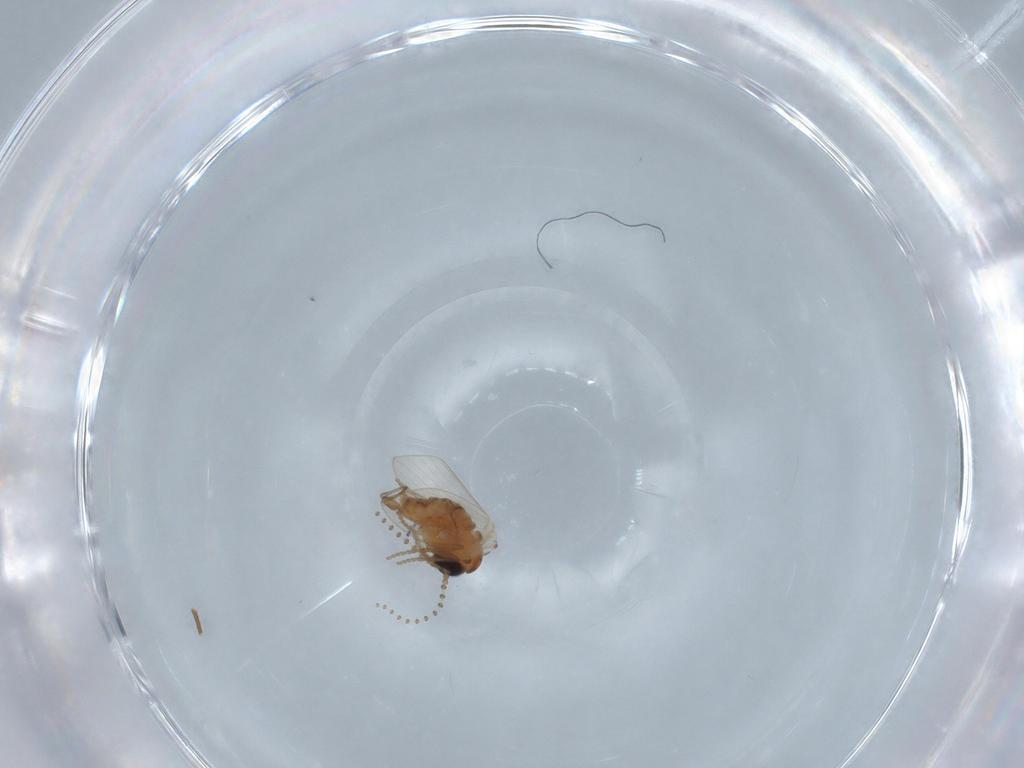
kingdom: Animalia
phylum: Arthropoda
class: Insecta
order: Diptera
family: Psychodidae
